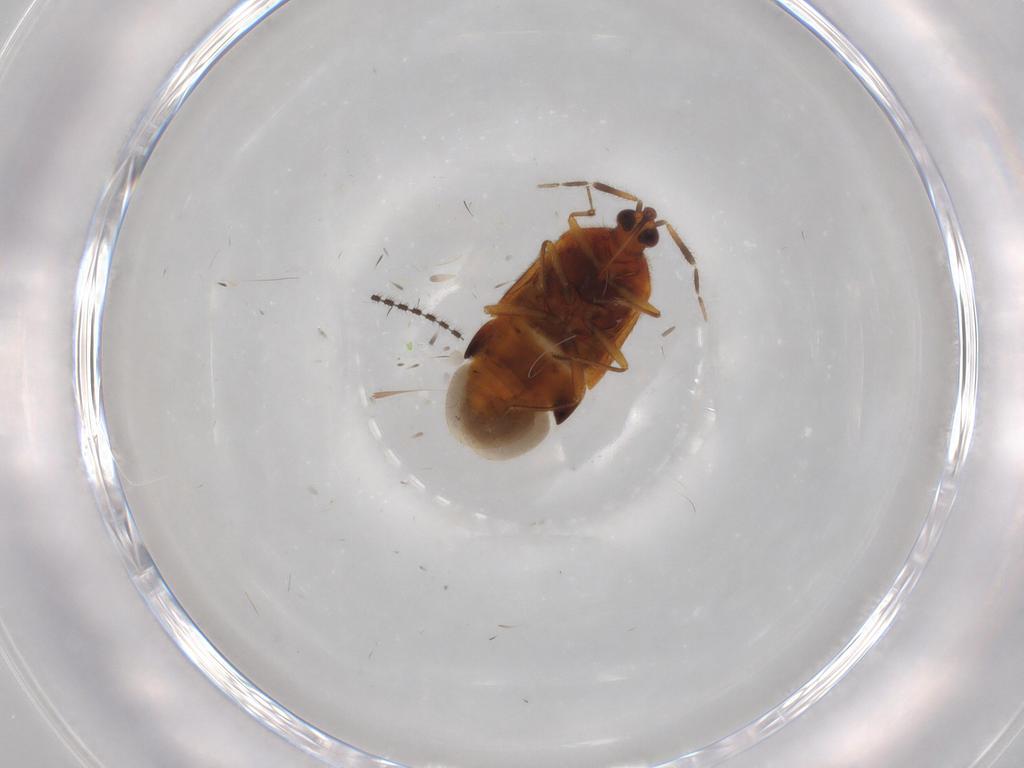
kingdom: Animalia
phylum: Arthropoda
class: Insecta
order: Hemiptera
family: Anthocoridae
